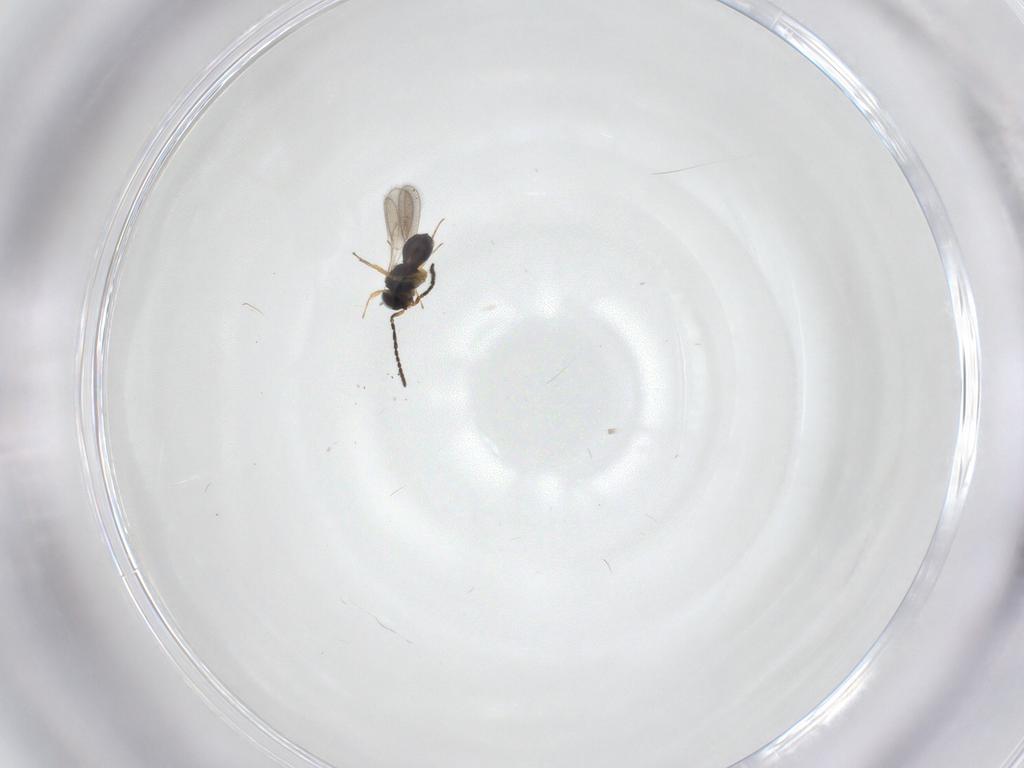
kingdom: Animalia
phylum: Arthropoda
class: Insecta
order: Hymenoptera
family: Scelionidae
